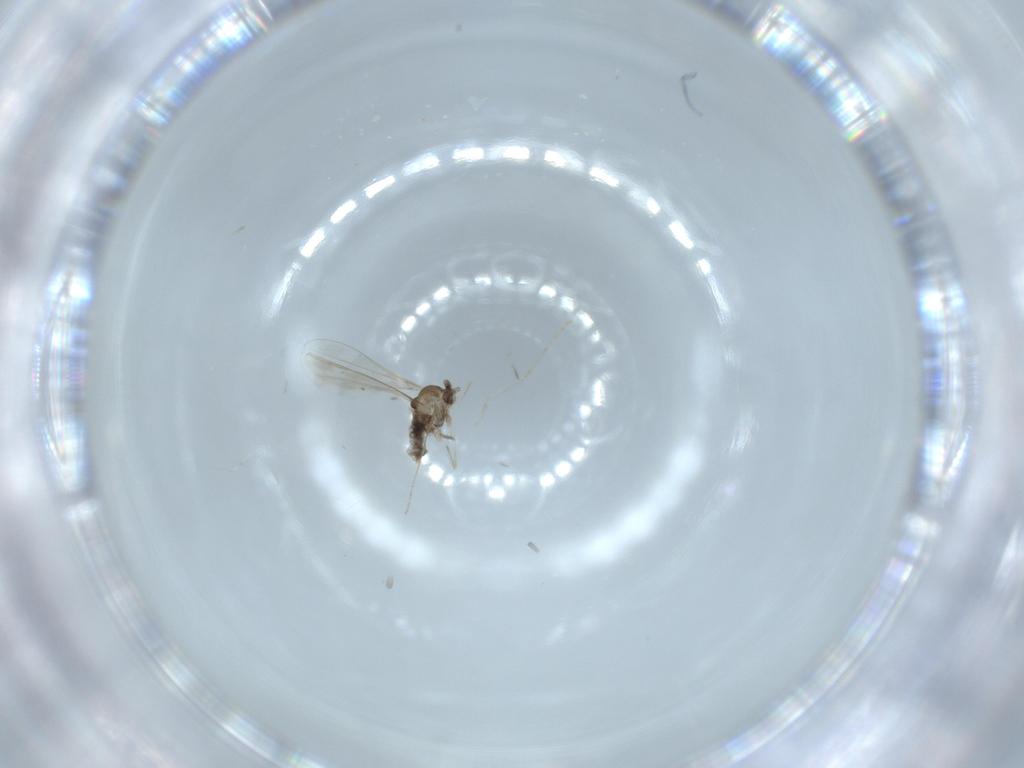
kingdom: Animalia
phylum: Arthropoda
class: Insecta
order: Diptera
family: Cecidomyiidae
